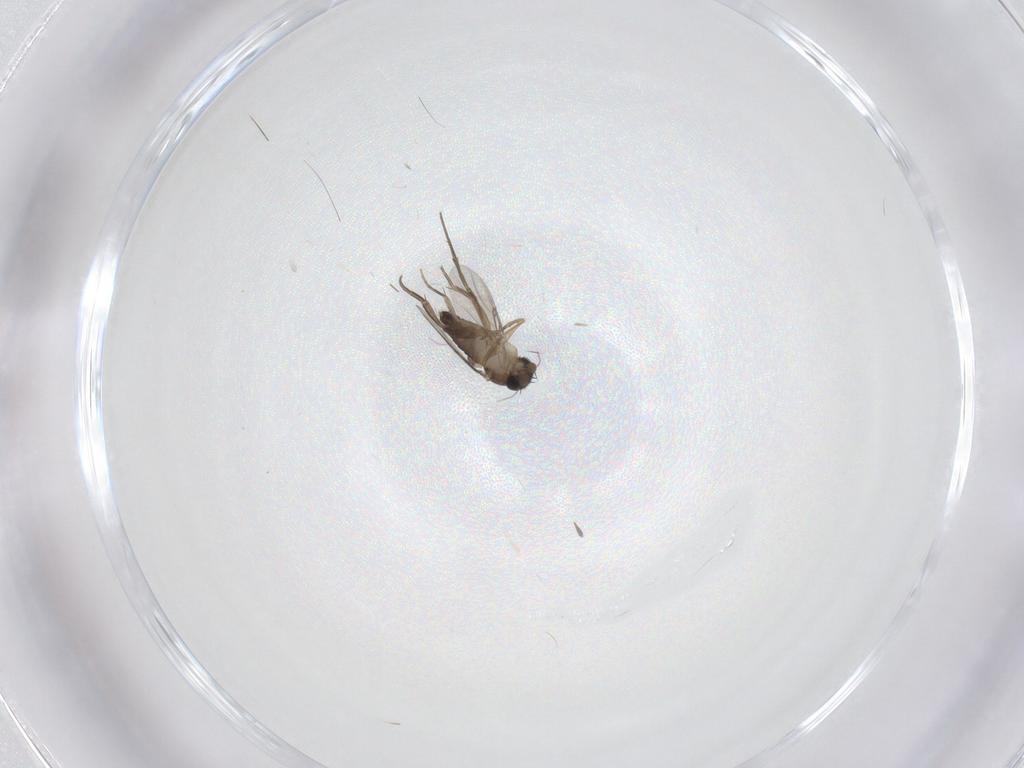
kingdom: Animalia
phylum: Arthropoda
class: Insecta
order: Diptera
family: Phoridae
